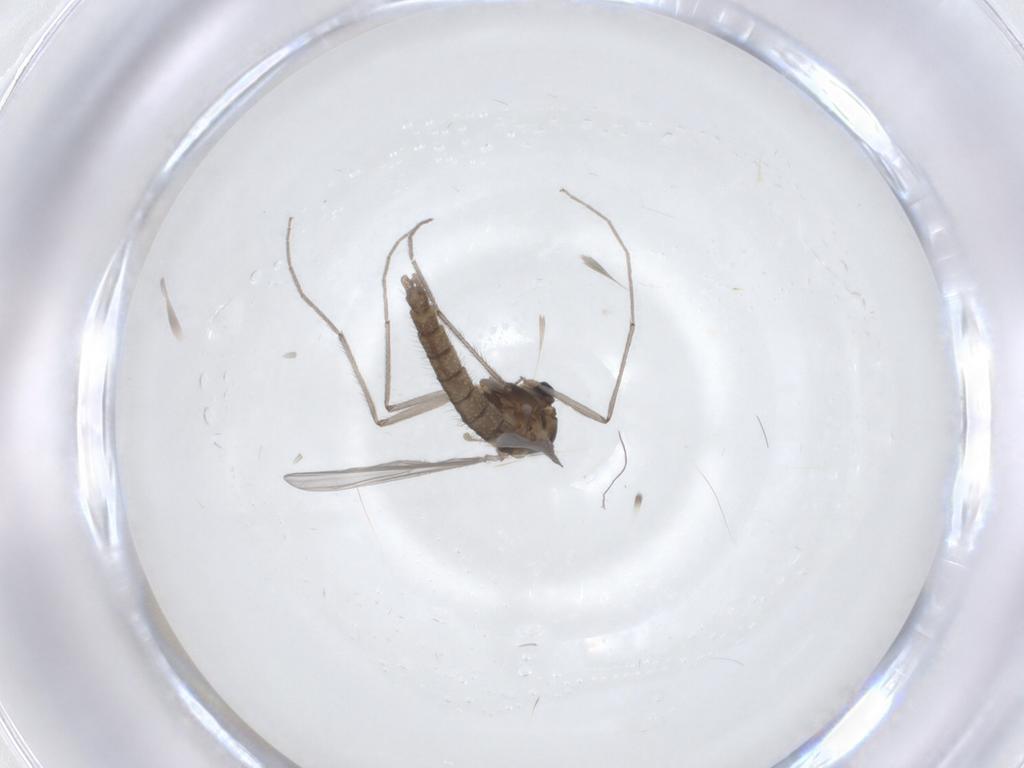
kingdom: Animalia
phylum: Arthropoda
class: Insecta
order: Diptera
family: Chironomidae
